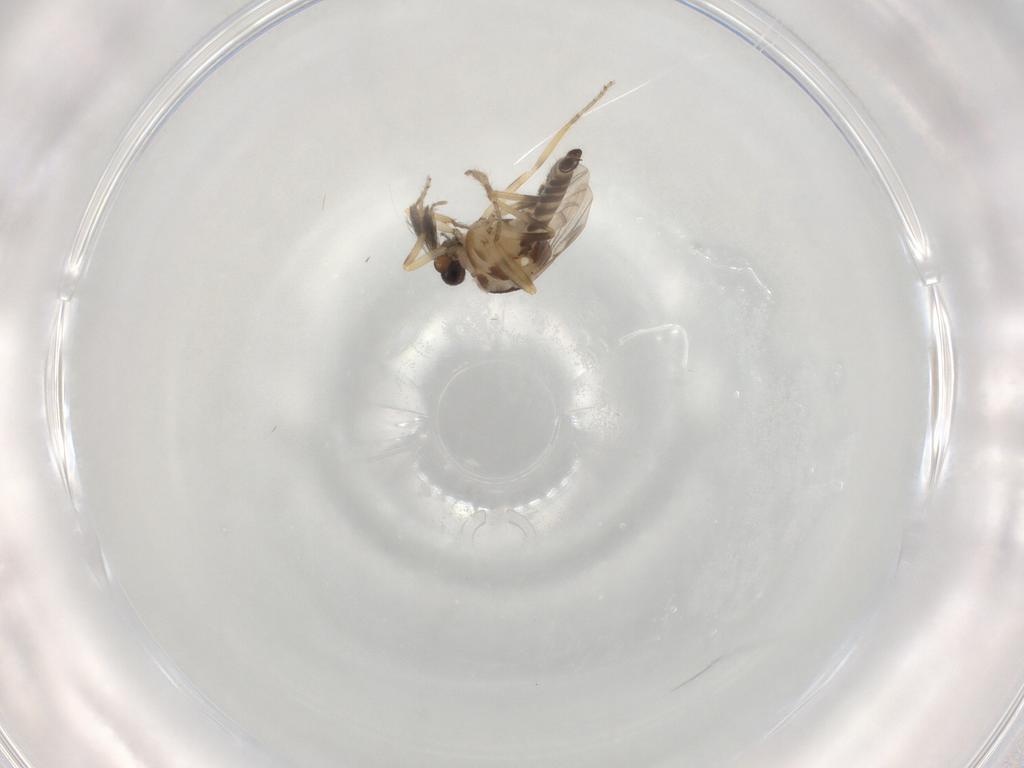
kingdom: Animalia
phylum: Arthropoda
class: Insecta
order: Diptera
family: Ceratopogonidae
